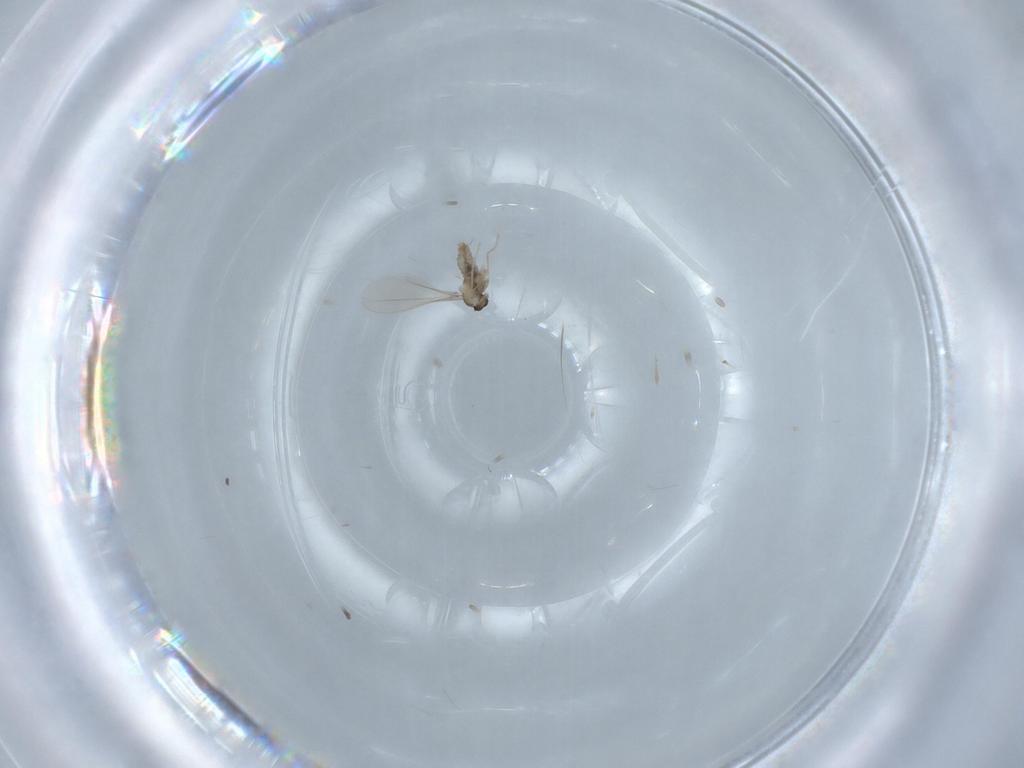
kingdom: Animalia
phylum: Arthropoda
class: Insecta
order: Diptera
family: Cecidomyiidae
